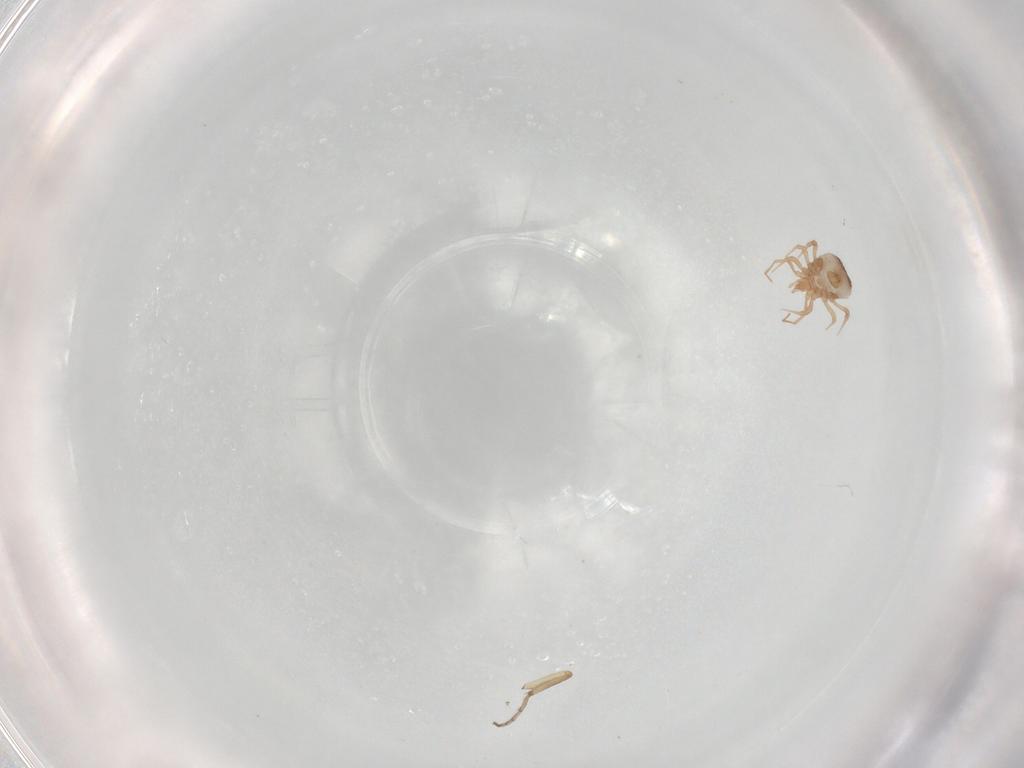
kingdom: Animalia
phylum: Arthropoda
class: Arachnida
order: Mesostigmata
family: Blattisociidae
